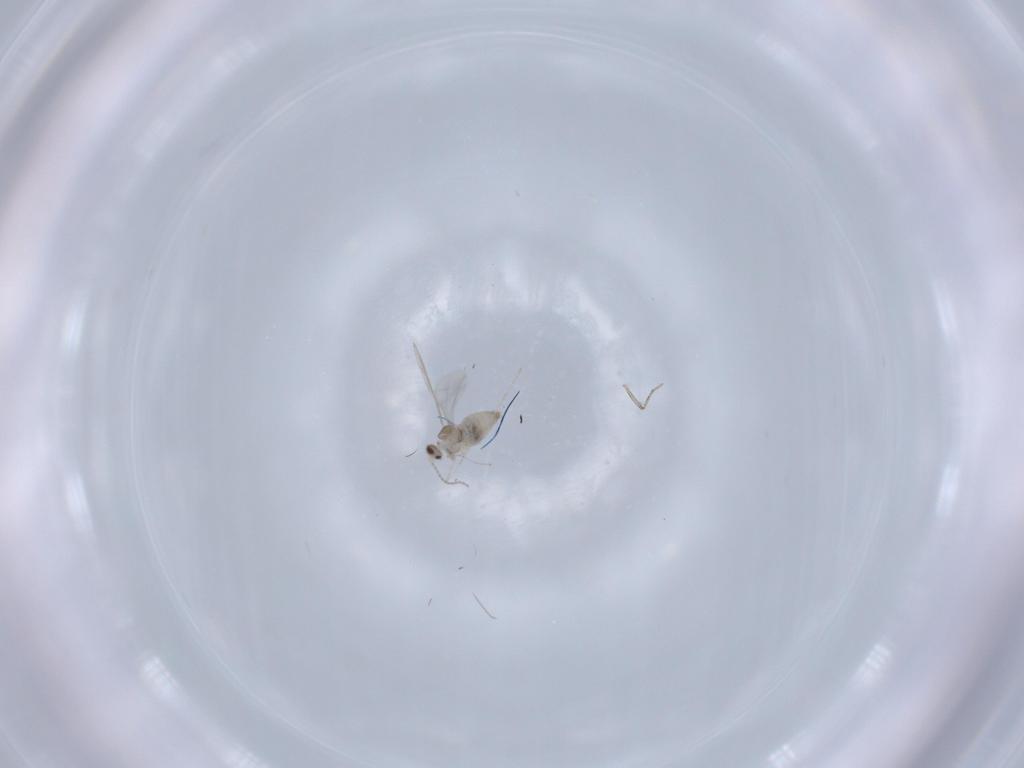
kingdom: Animalia
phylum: Arthropoda
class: Insecta
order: Diptera
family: Cecidomyiidae
